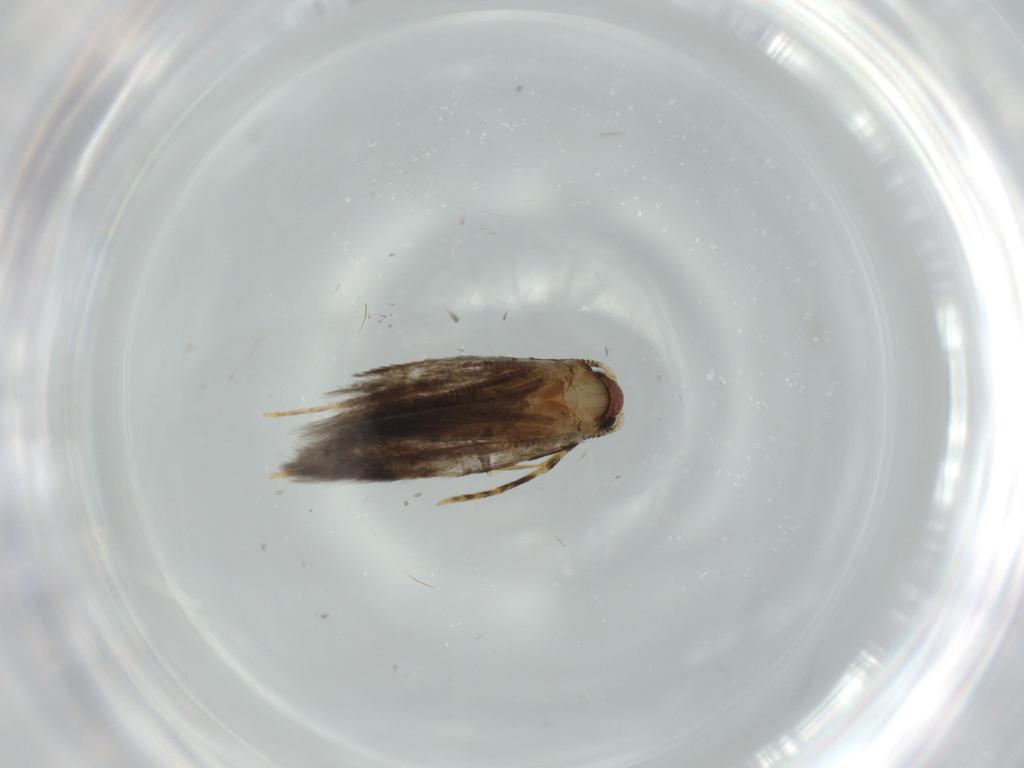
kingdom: Animalia
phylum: Arthropoda
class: Insecta
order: Lepidoptera
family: Tineidae
